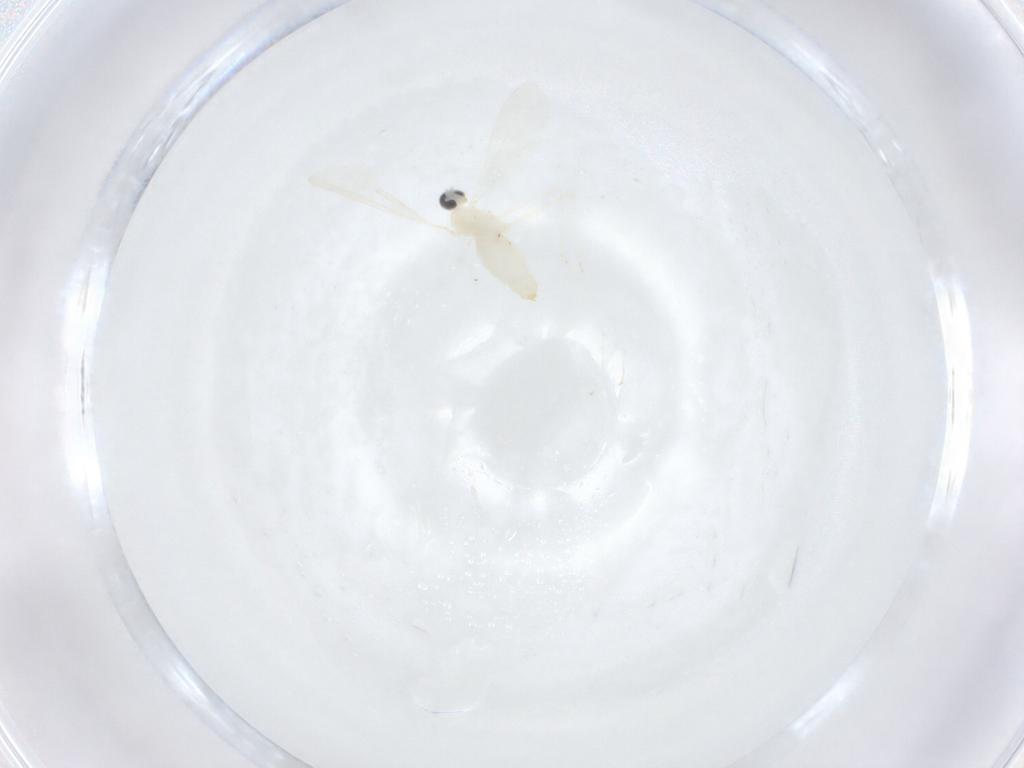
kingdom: Animalia
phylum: Arthropoda
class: Insecta
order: Diptera
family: Cecidomyiidae
